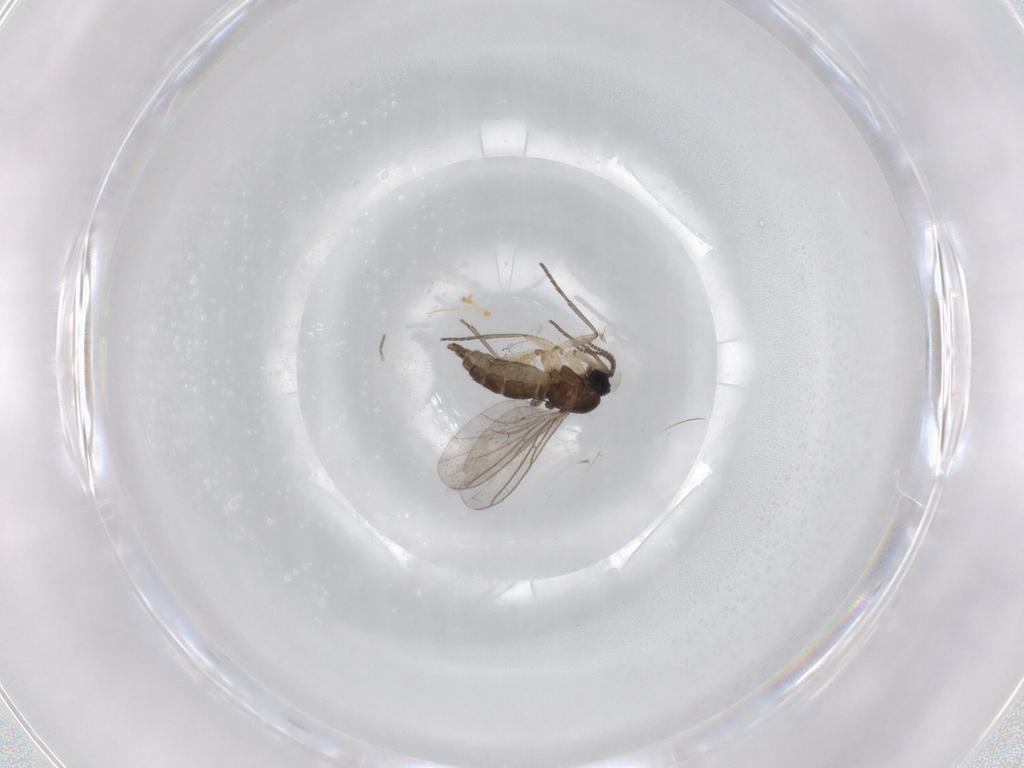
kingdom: Animalia
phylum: Arthropoda
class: Insecta
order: Diptera
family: Sciaridae
